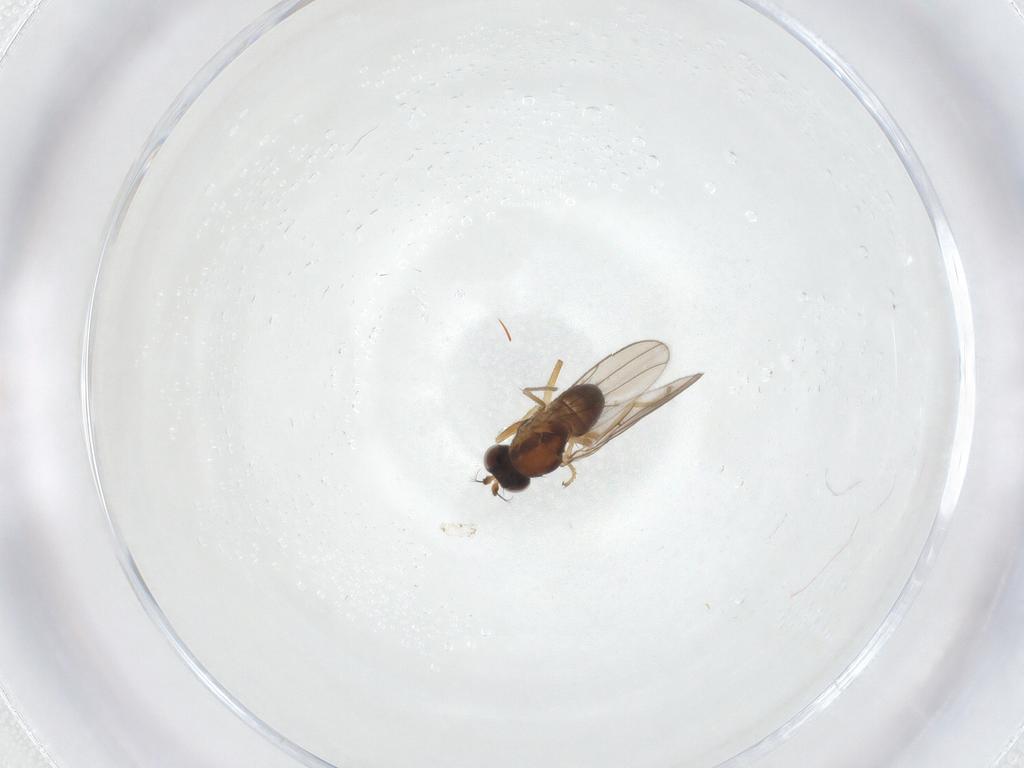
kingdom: Animalia
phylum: Arthropoda
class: Insecta
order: Diptera
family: Ephydridae
